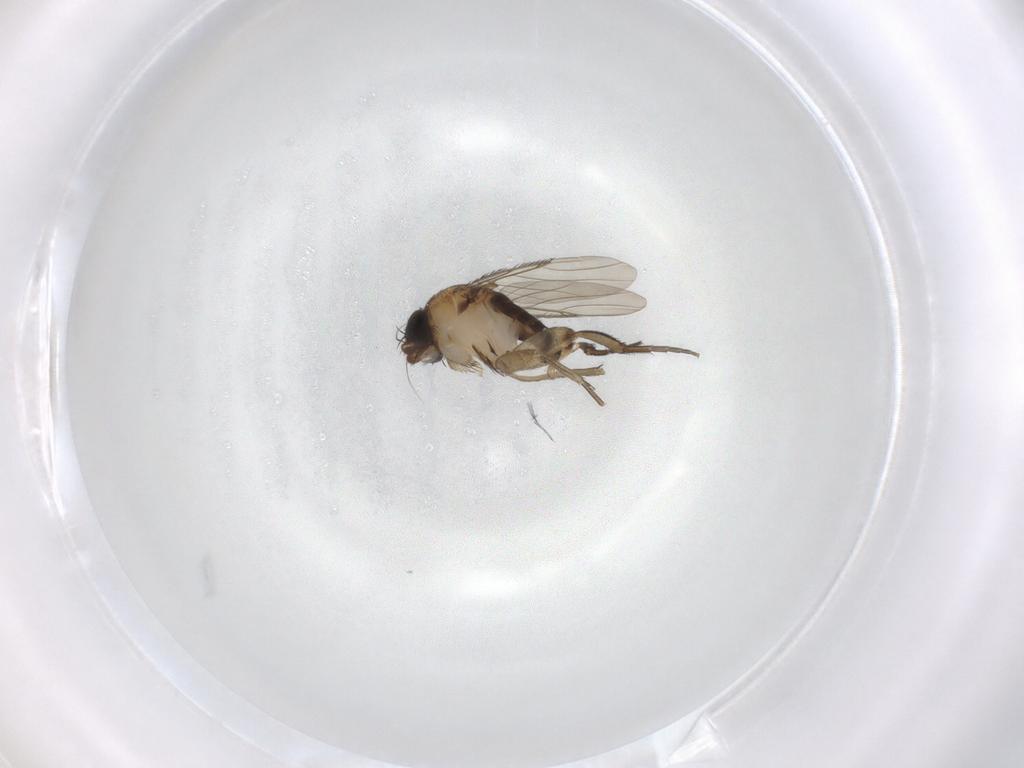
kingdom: Animalia
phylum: Arthropoda
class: Insecta
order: Diptera
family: Phoridae
